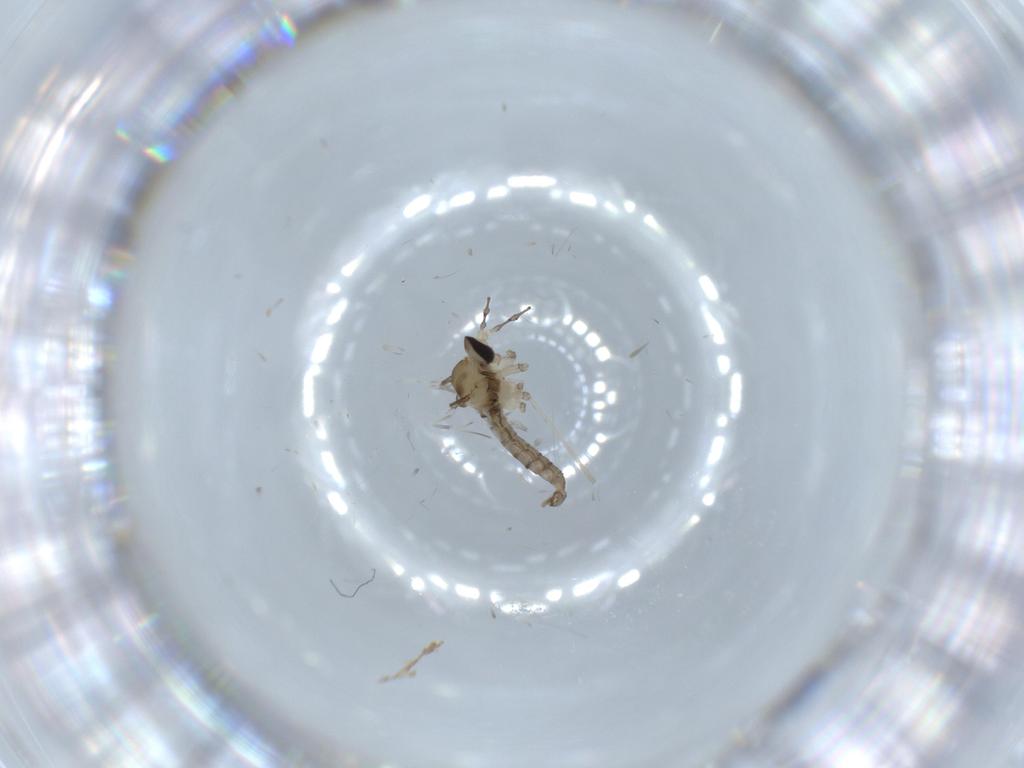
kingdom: Animalia
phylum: Arthropoda
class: Insecta
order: Diptera
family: Cecidomyiidae
